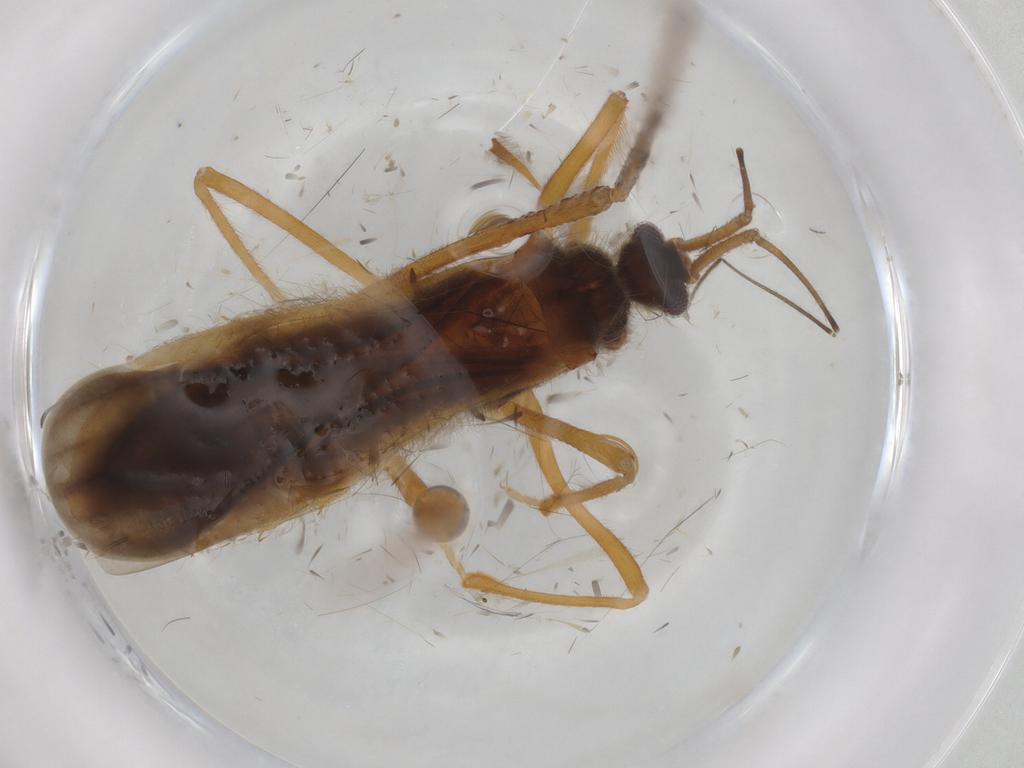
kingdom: Animalia
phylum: Arthropoda
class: Insecta
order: Hemiptera
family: Reduviidae
